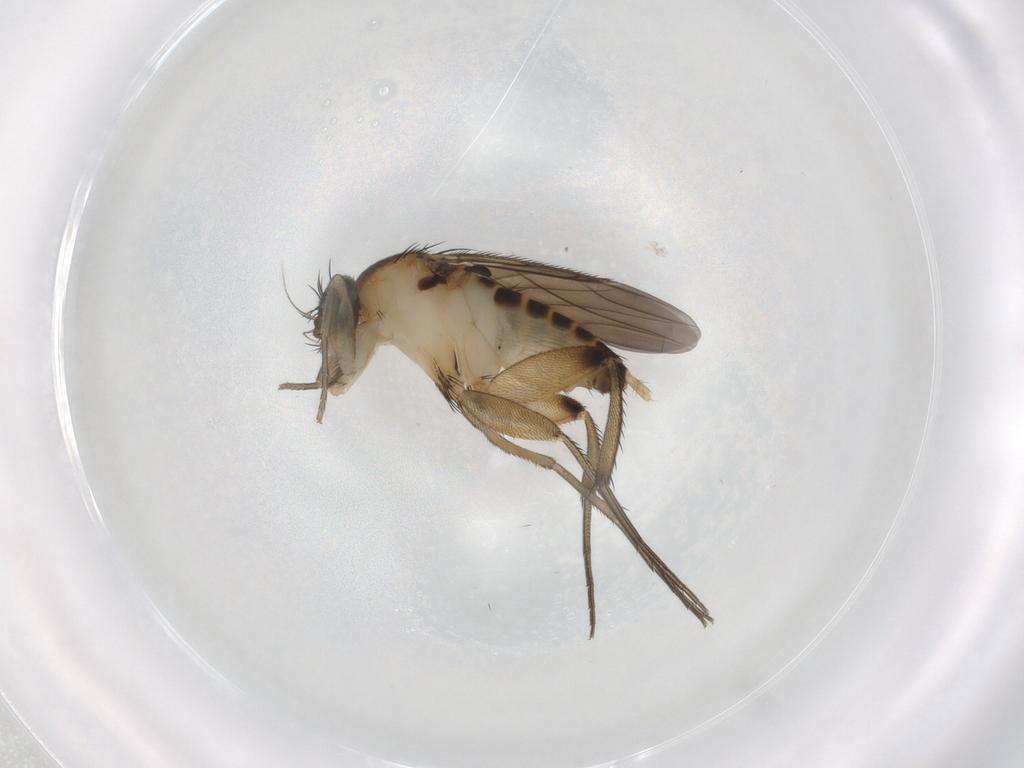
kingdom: Animalia
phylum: Arthropoda
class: Insecta
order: Diptera
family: Phoridae
